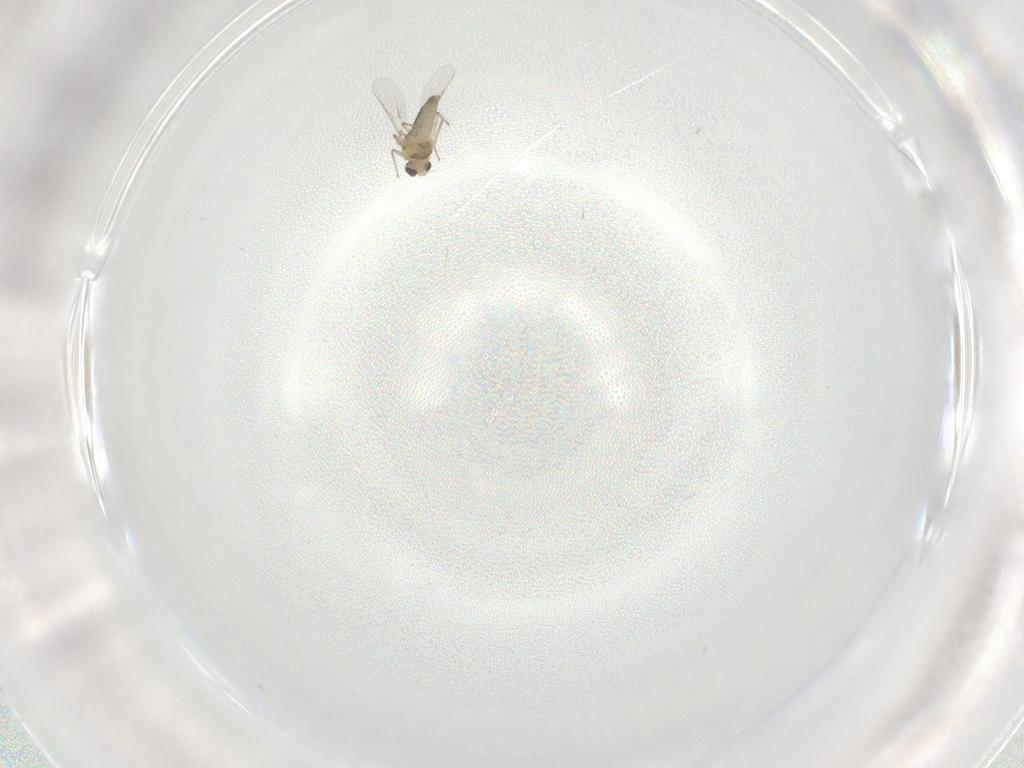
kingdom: Animalia
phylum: Arthropoda
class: Insecta
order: Diptera
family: Chironomidae
